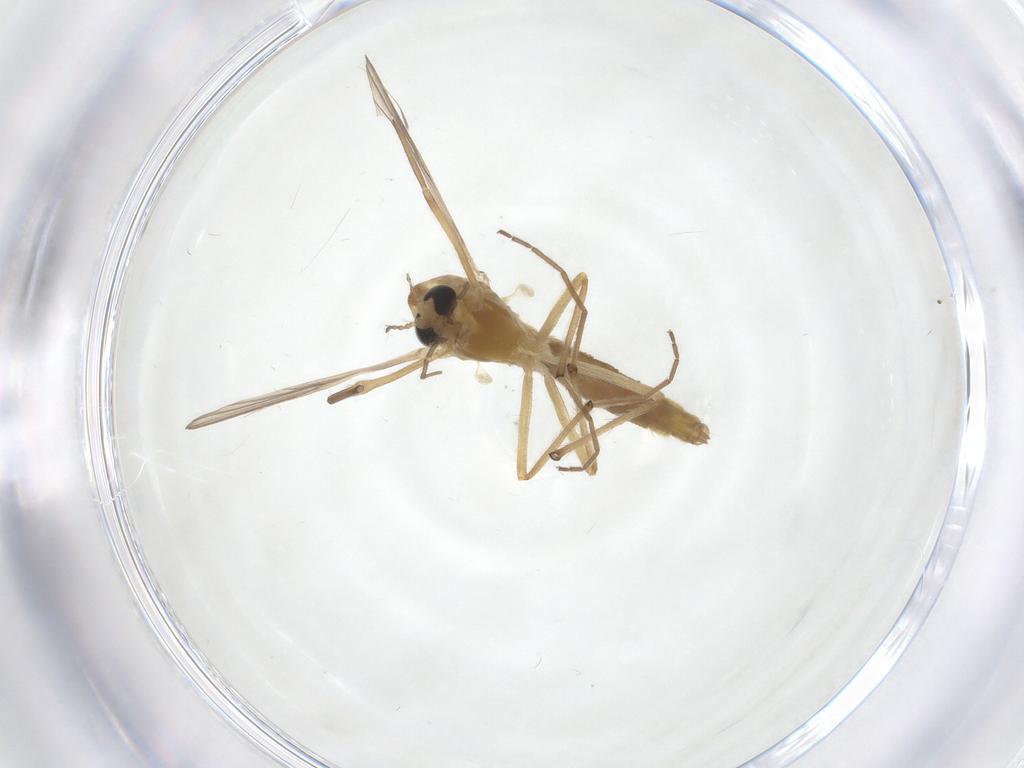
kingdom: Animalia
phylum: Arthropoda
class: Insecta
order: Diptera
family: Chironomidae
